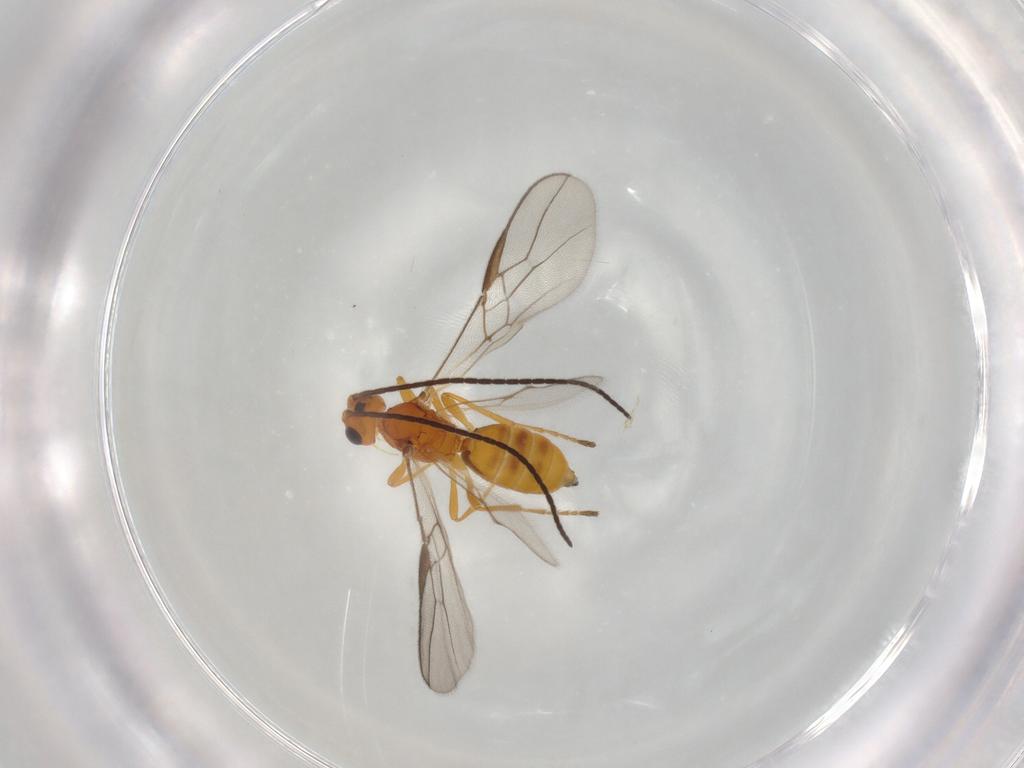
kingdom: Animalia
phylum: Arthropoda
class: Insecta
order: Hymenoptera
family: Braconidae
